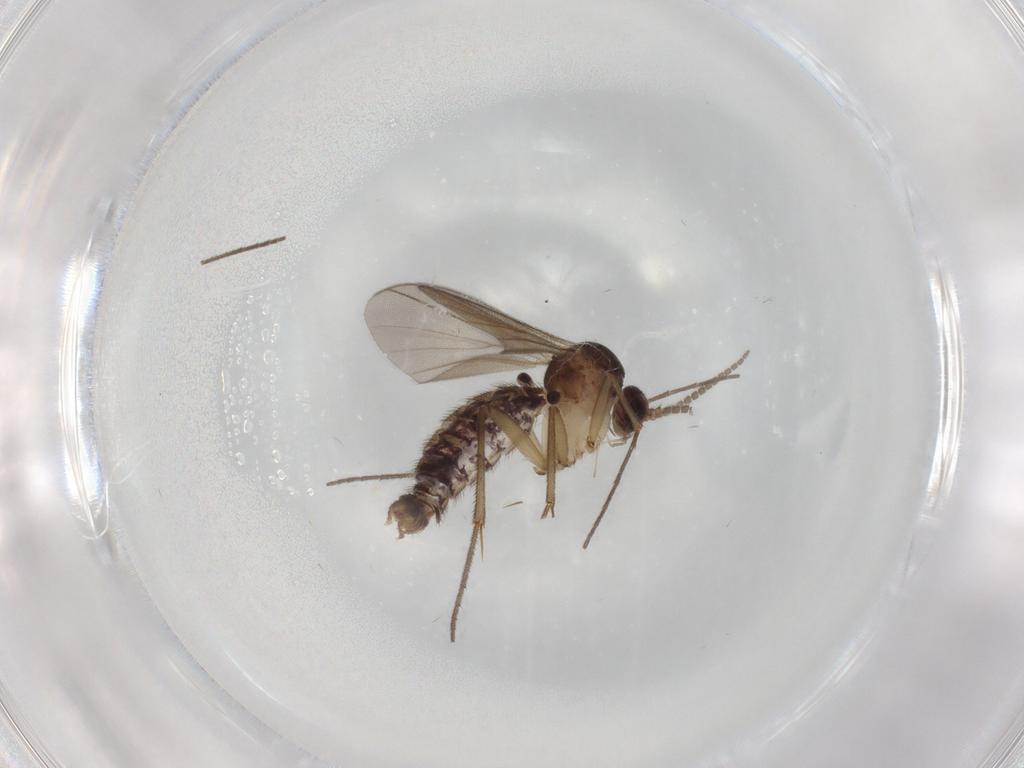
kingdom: Animalia
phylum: Arthropoda
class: Insecta
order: Diptera
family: Mycetophilidae
